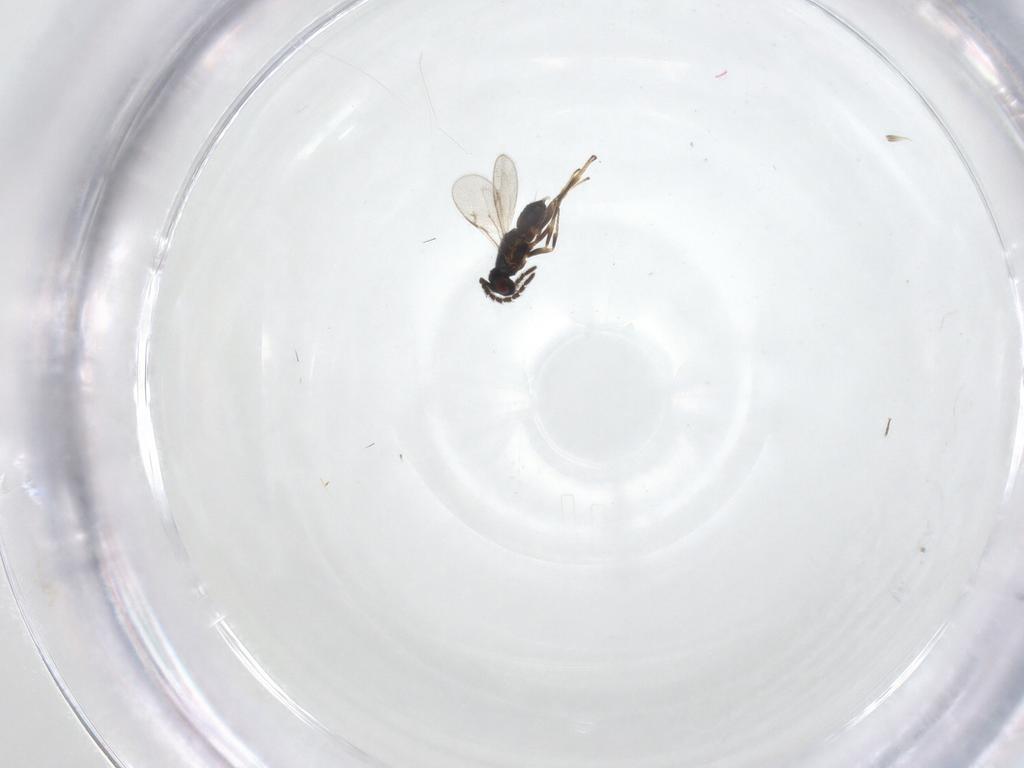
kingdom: Animalia
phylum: Arthropoda
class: Insecta
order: Hymenoptera
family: Encyrtidae
